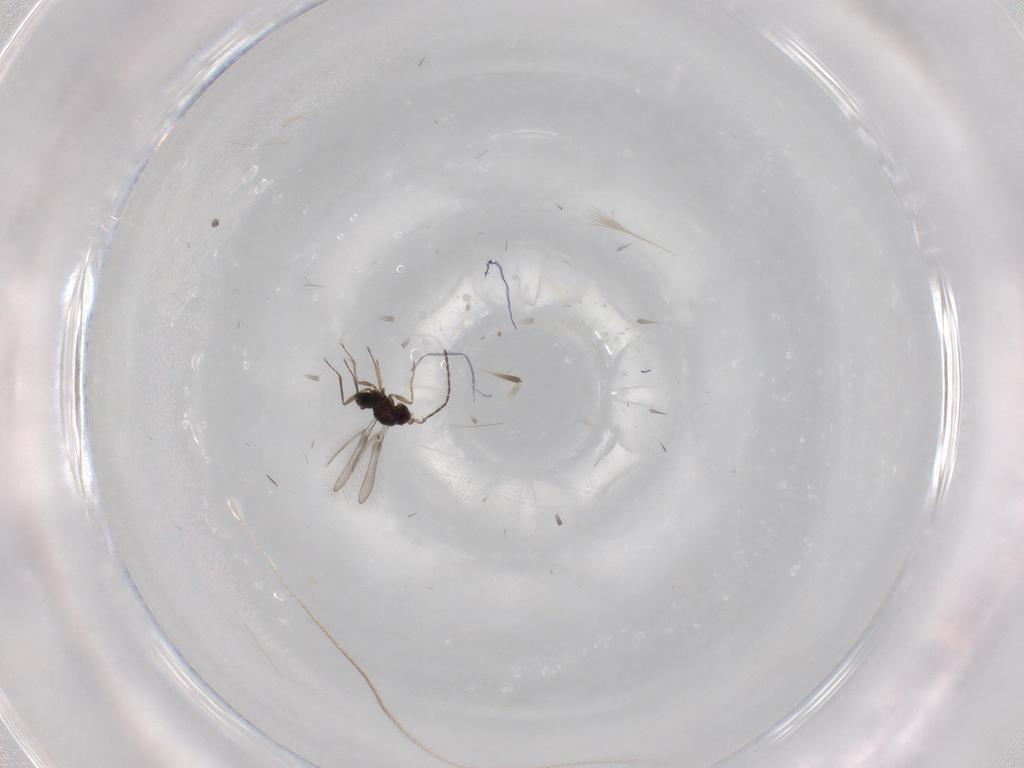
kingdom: Animalia
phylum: Arthropoda
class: Insecta
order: Hymenoptera
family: Mymaridae
